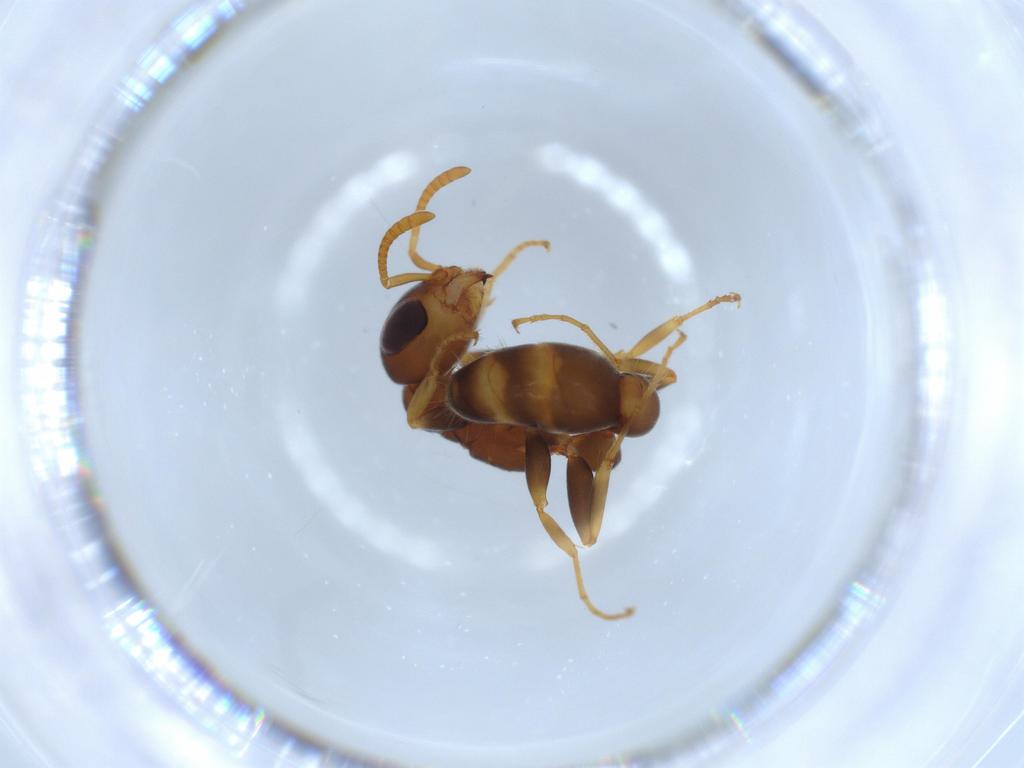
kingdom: Animalia
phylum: Arthropoda
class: Insecta
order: Hymenoptera
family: Formicidae
